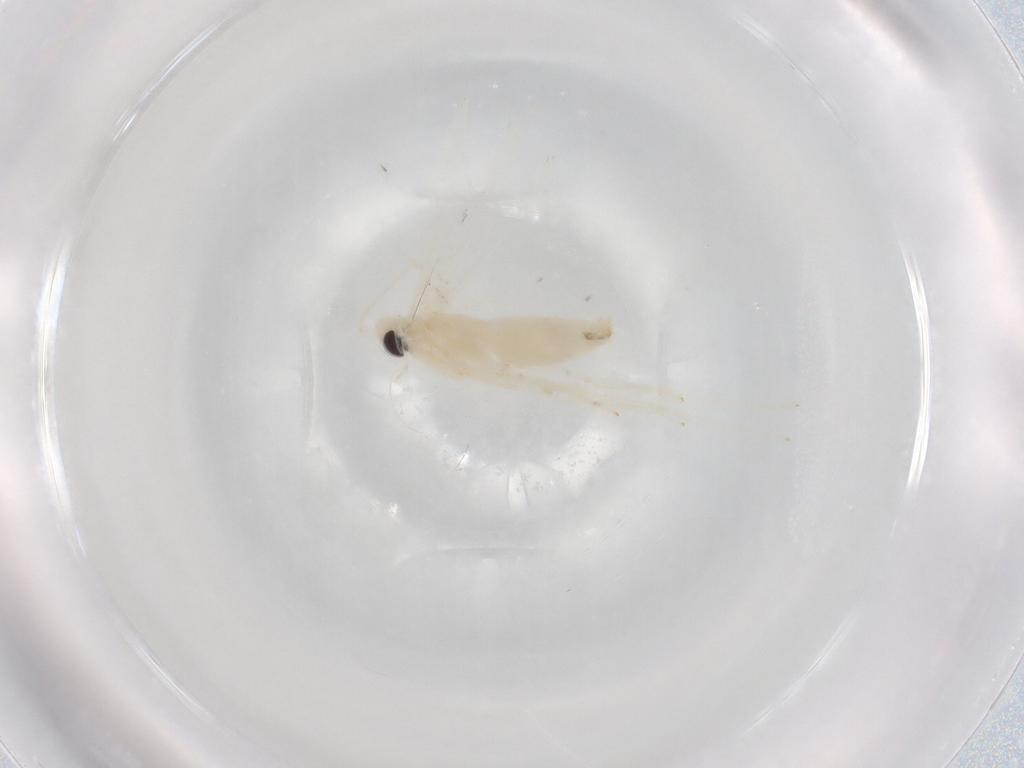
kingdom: Animalia
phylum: Arthropoda
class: Insecta
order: Lepidoptera
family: Gracillariidae
